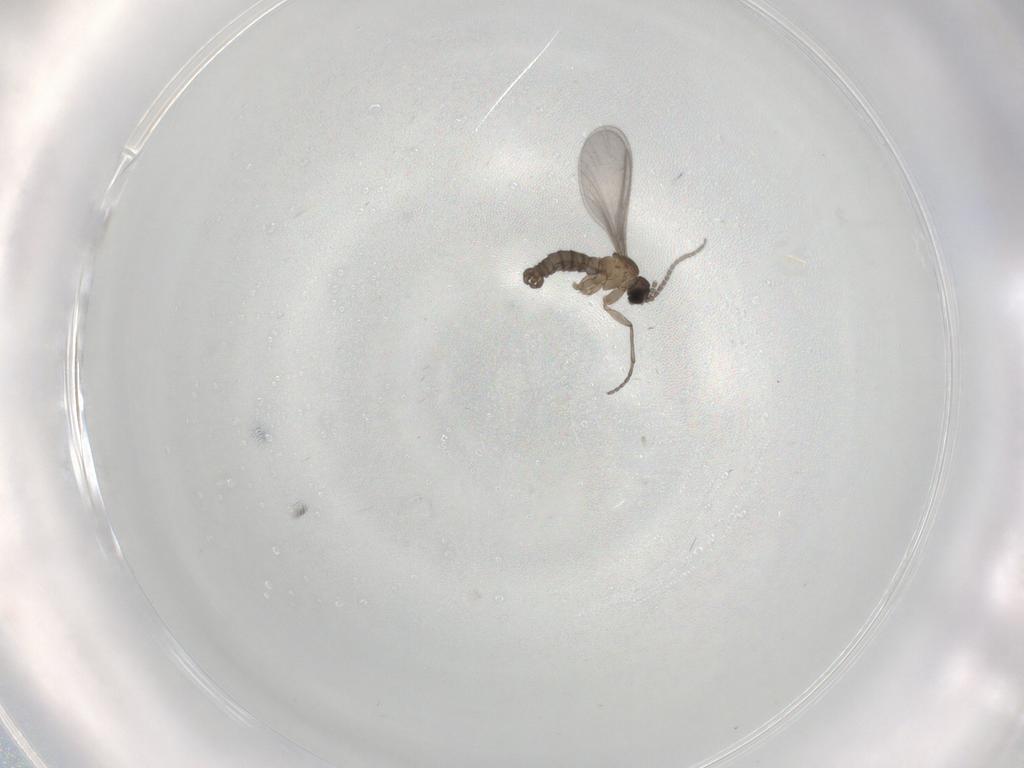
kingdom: Animalia
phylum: Arthropoda
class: Insecta
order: Diptera
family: Sciaridae
